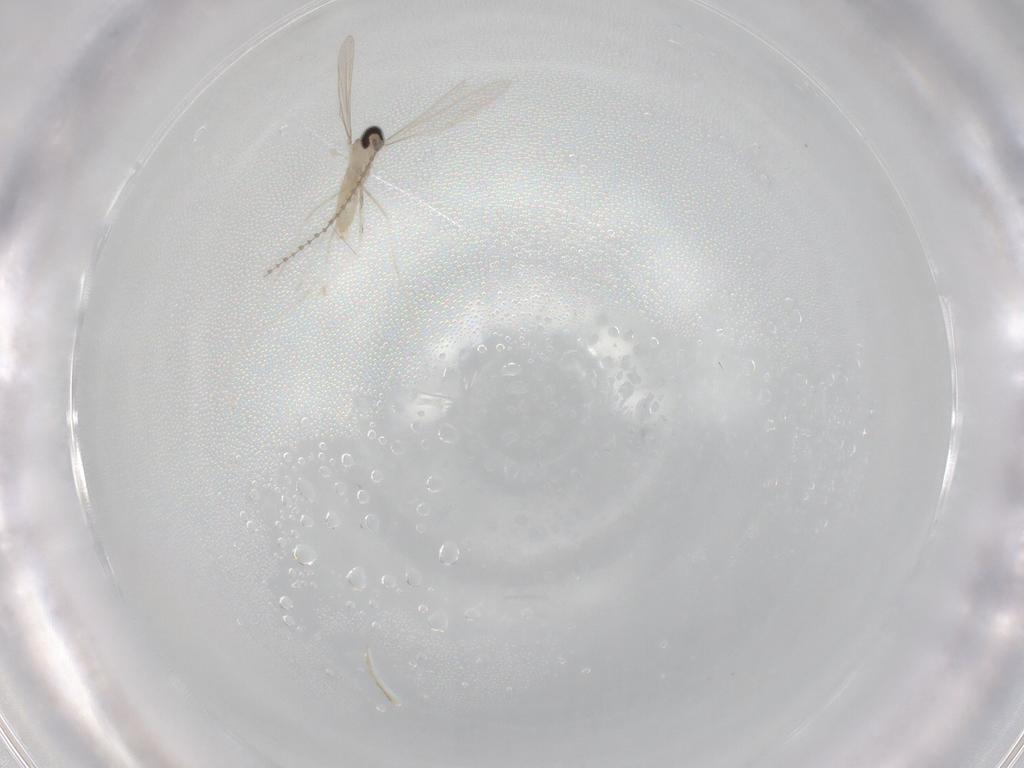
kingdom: Animalia
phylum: Arthropoda
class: Insecta
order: Diptera
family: Cecidomyiidae
